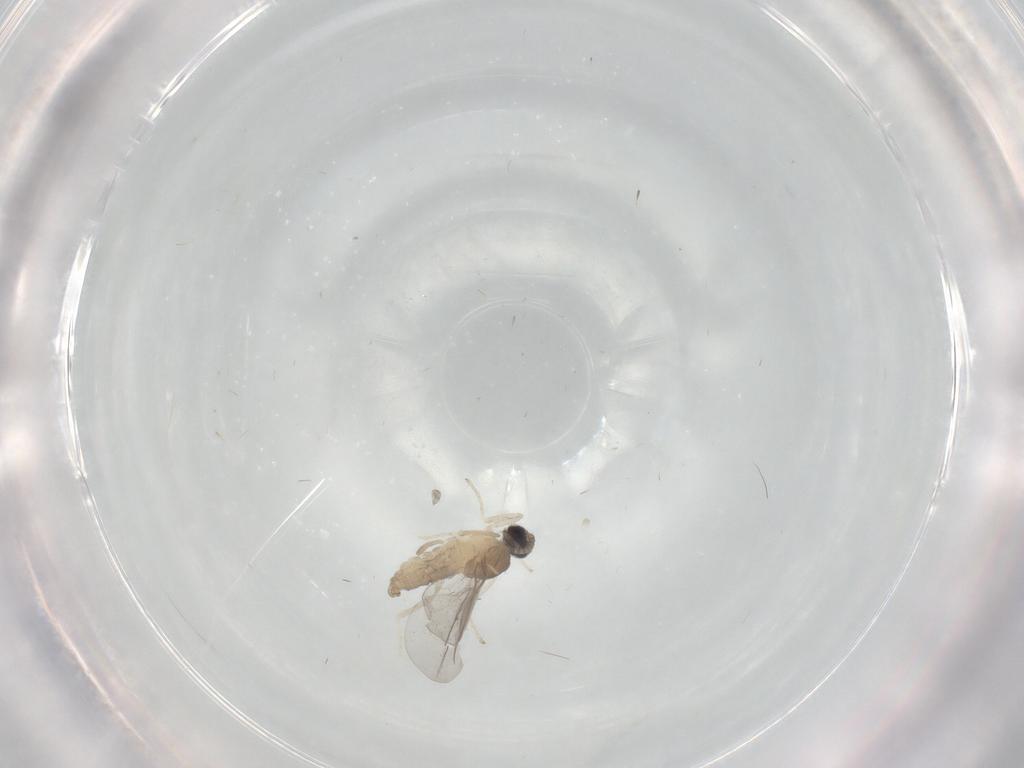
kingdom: Animalia
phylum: Arthropoda
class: Insecta
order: Diptera
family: Cecidomyiidae
